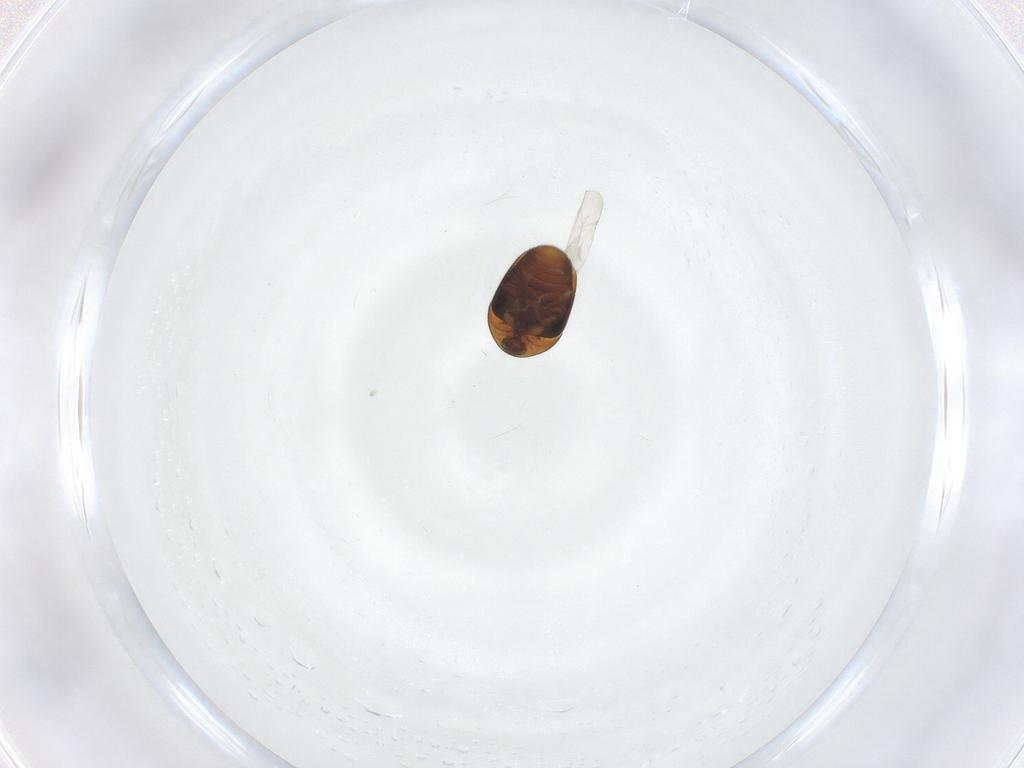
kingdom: Animalia
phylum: Arthropoda
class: Insecta
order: Coleoptera
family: Corylophidae
